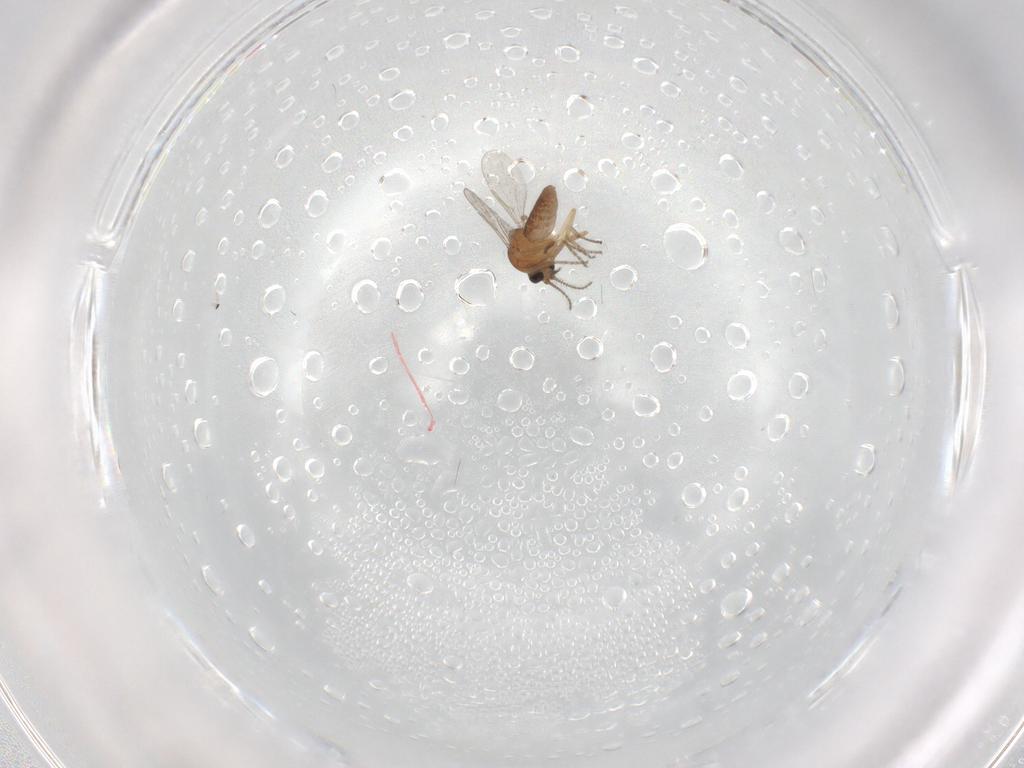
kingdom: Animalia
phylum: Arthropoda
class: Insecta
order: Diptera
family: Ceratopogonidae
